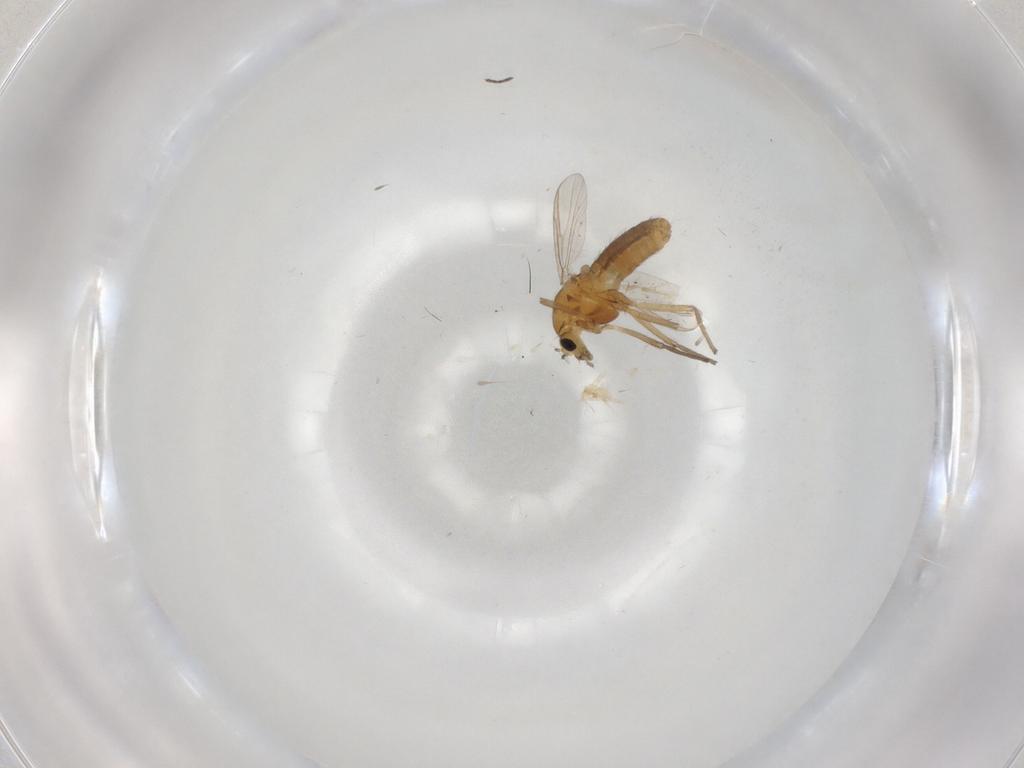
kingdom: Animalia
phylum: Arthropoda
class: Insecta
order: Diptera
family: Sciaridae
